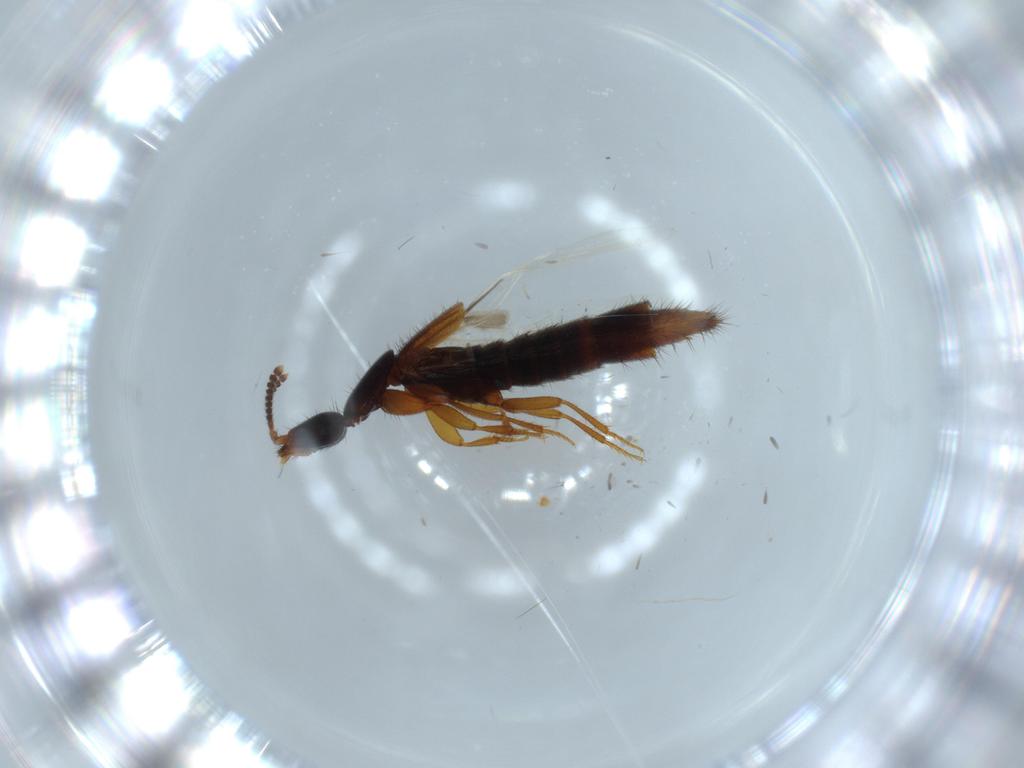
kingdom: Animalia
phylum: Arthropoda
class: Insecta
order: Coleoptera
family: Staphylinidae
